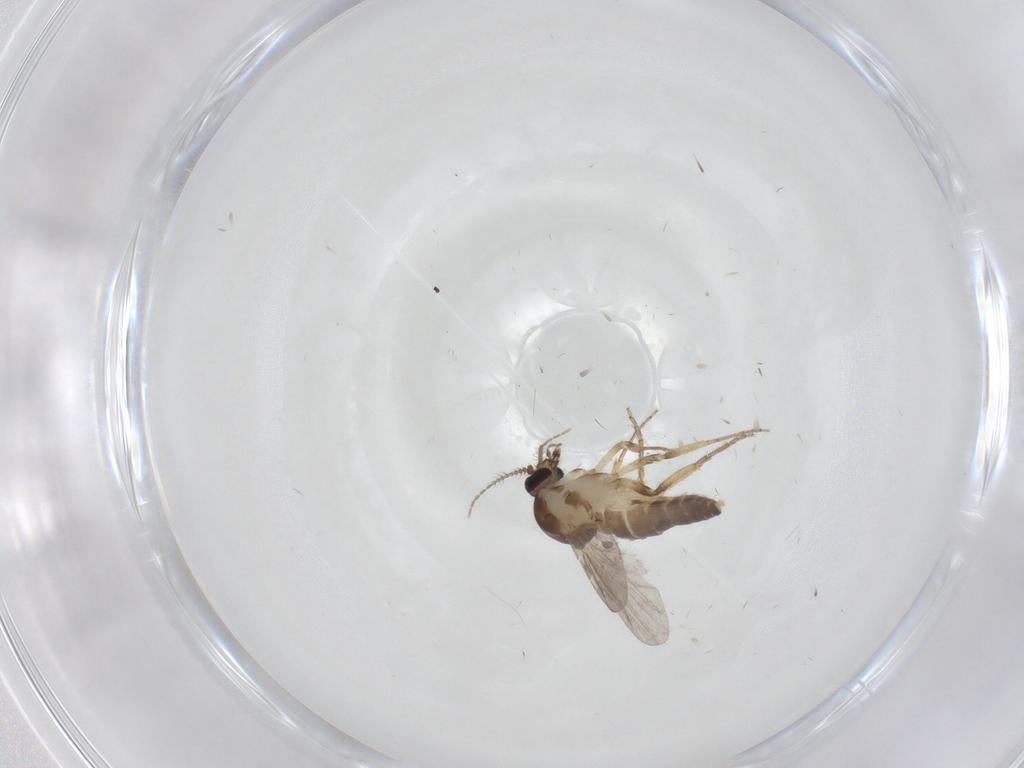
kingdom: Animalia
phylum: Arthropoda
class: Insecta
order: Diptera
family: Ceratopogonidae
